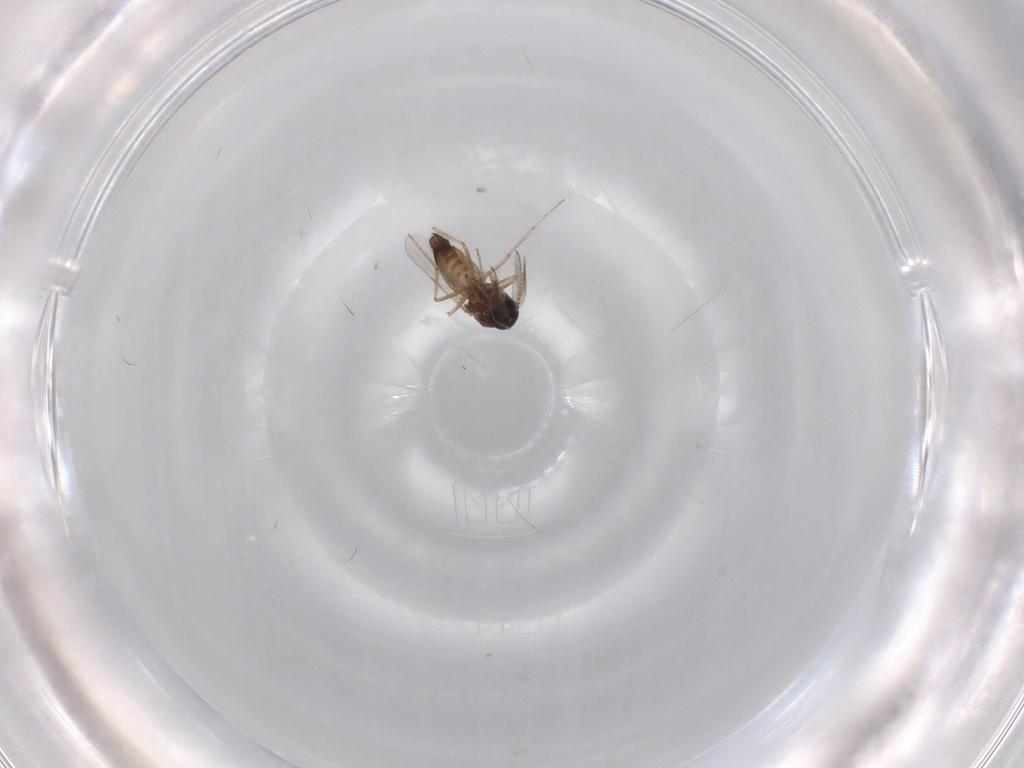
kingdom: Animalia
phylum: Arthropoda
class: Insecta
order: Diptera
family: Ceratopogonidae
